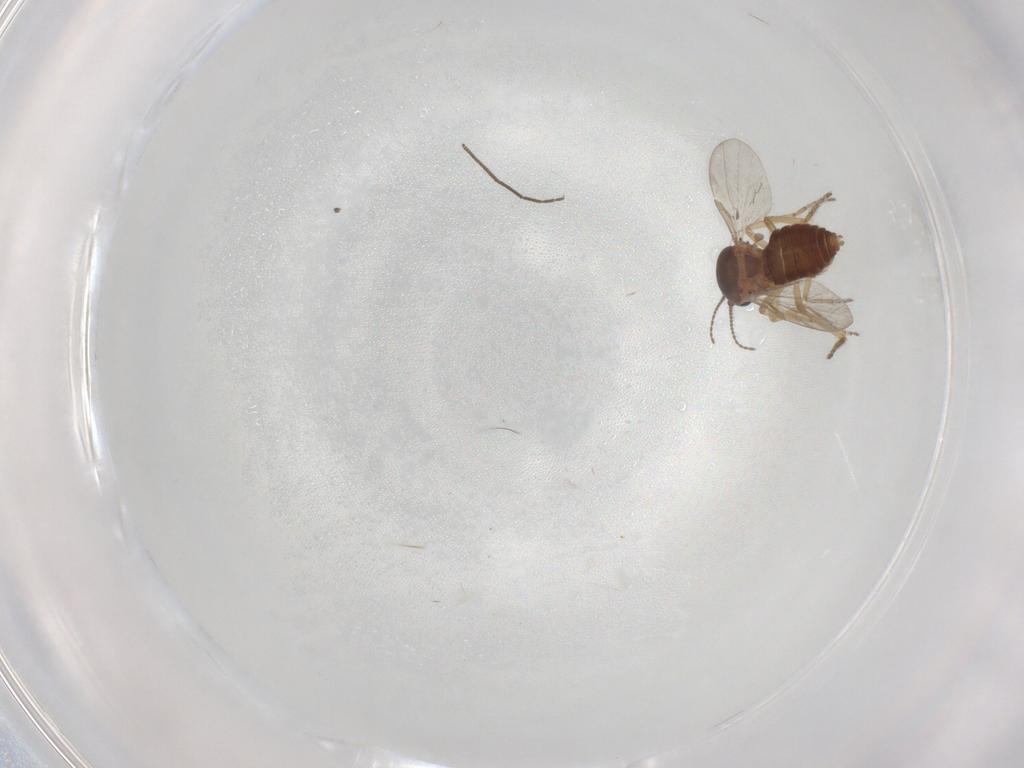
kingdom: Animalia
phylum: Arthropoda
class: Insecta
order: Diptera
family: Ceratopogonidae
